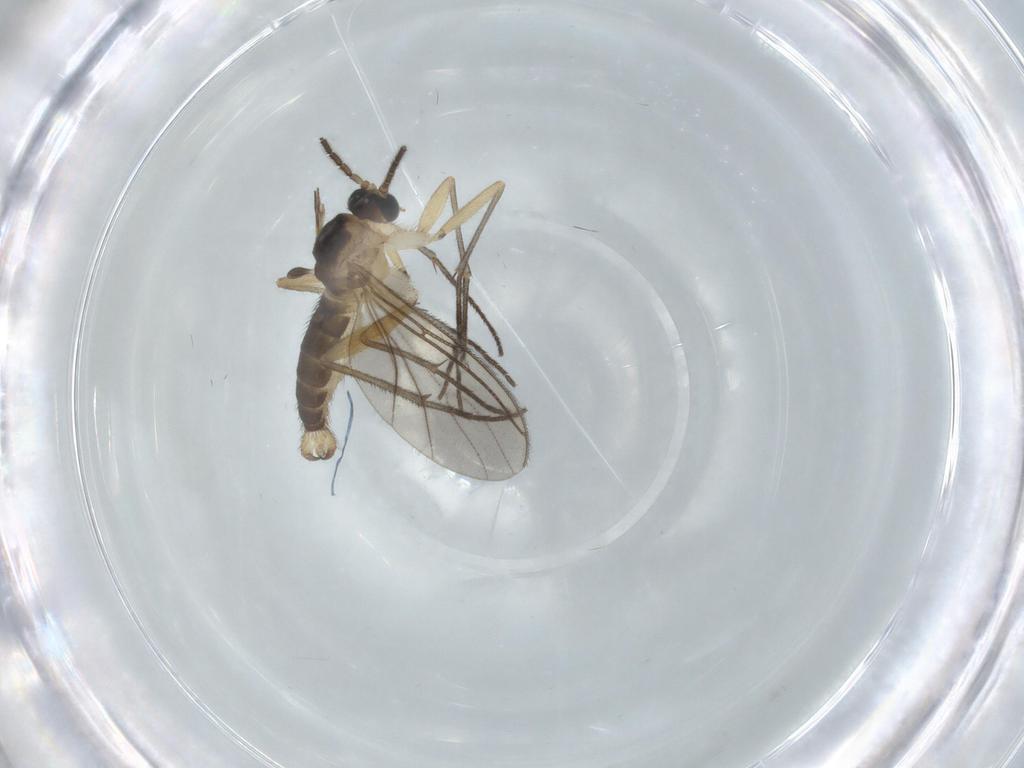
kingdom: Animalia
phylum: Arthropoda
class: Insecta
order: Diptera
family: Sciaridae
